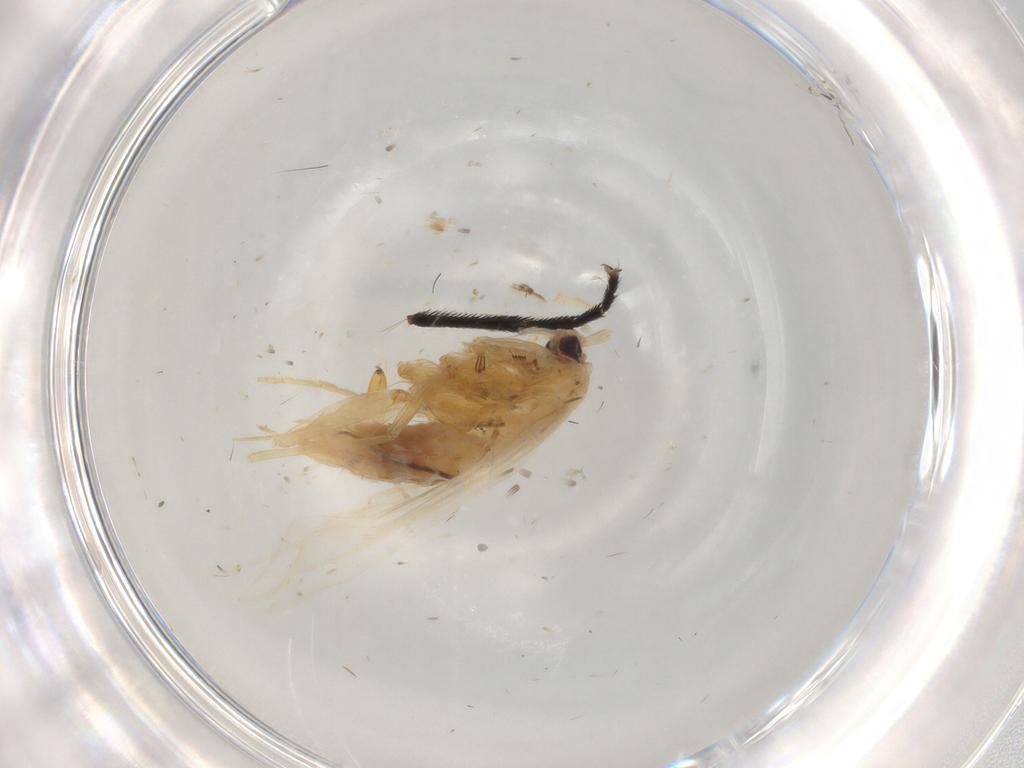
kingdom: Animalia
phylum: Arthropoda
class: Insecta
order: Lepidoptera
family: Xyloryctidae
